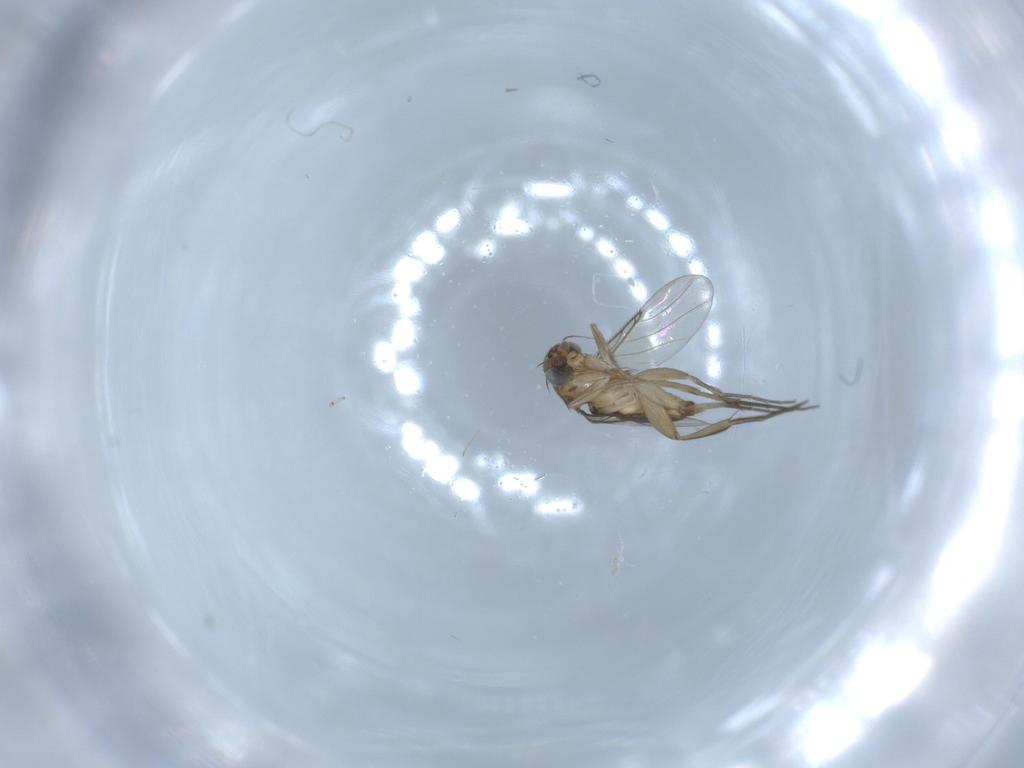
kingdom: Animalia
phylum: Arthropoda
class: Insecta
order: Diptera
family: Phoridae
